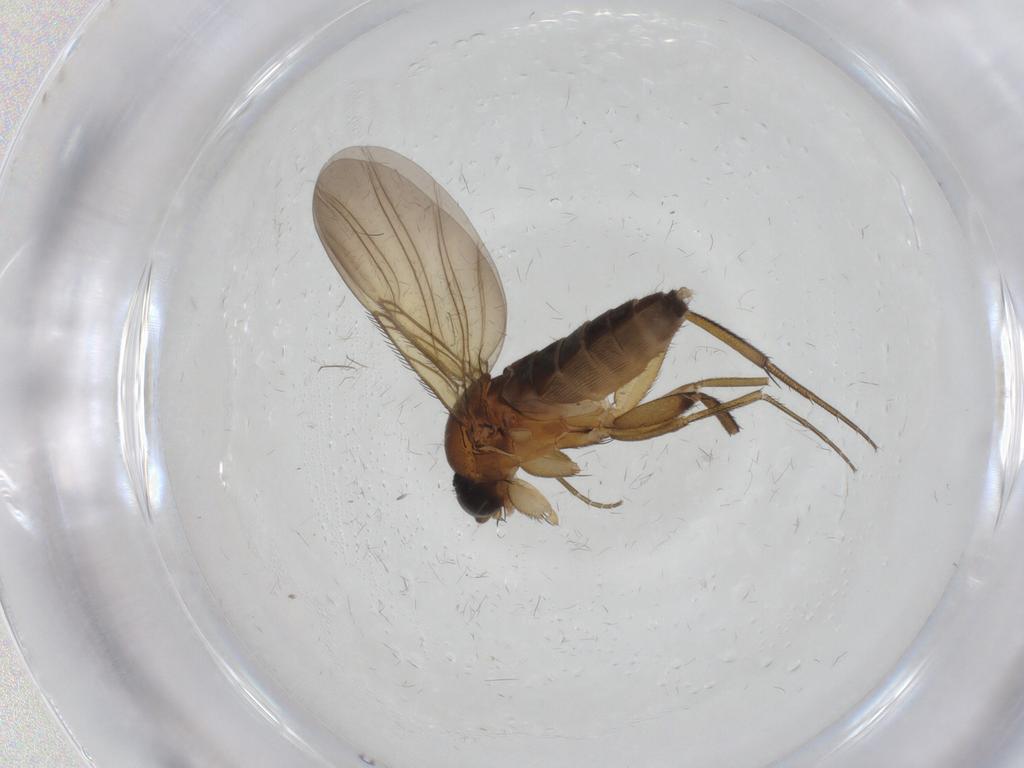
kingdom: Animalia
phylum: Arthropoda
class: Insecta
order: Diptera
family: Phoridae
